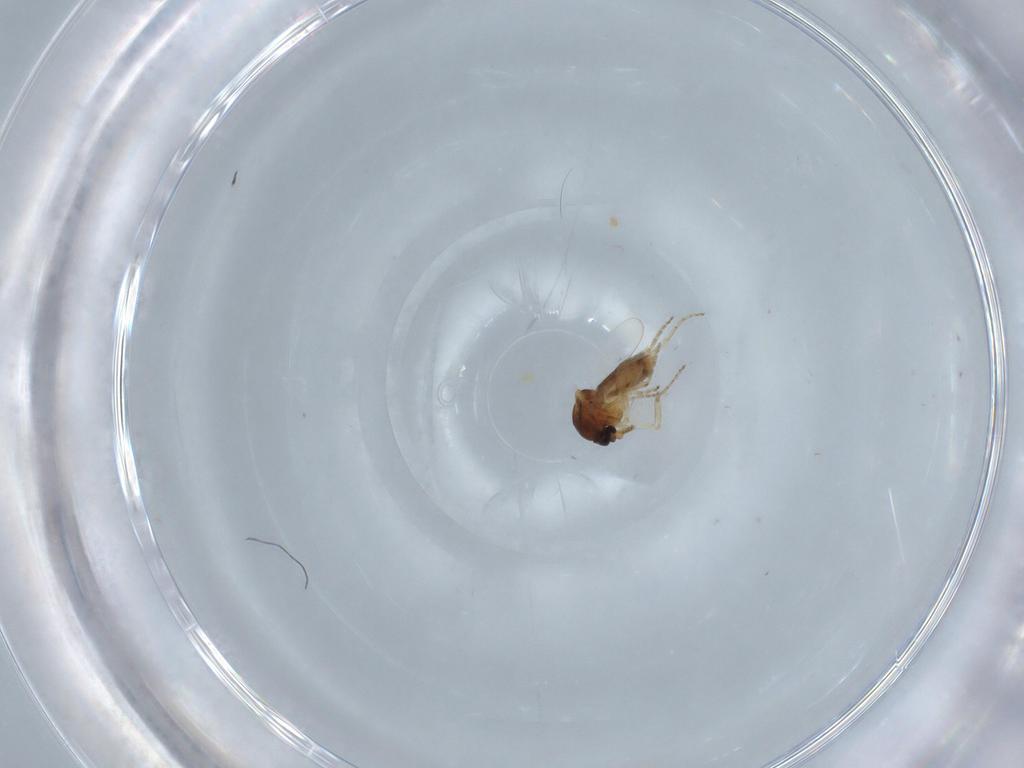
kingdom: Animalia
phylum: Arthropoda
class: Insecta
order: Diptera
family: Ceratopogonidae
